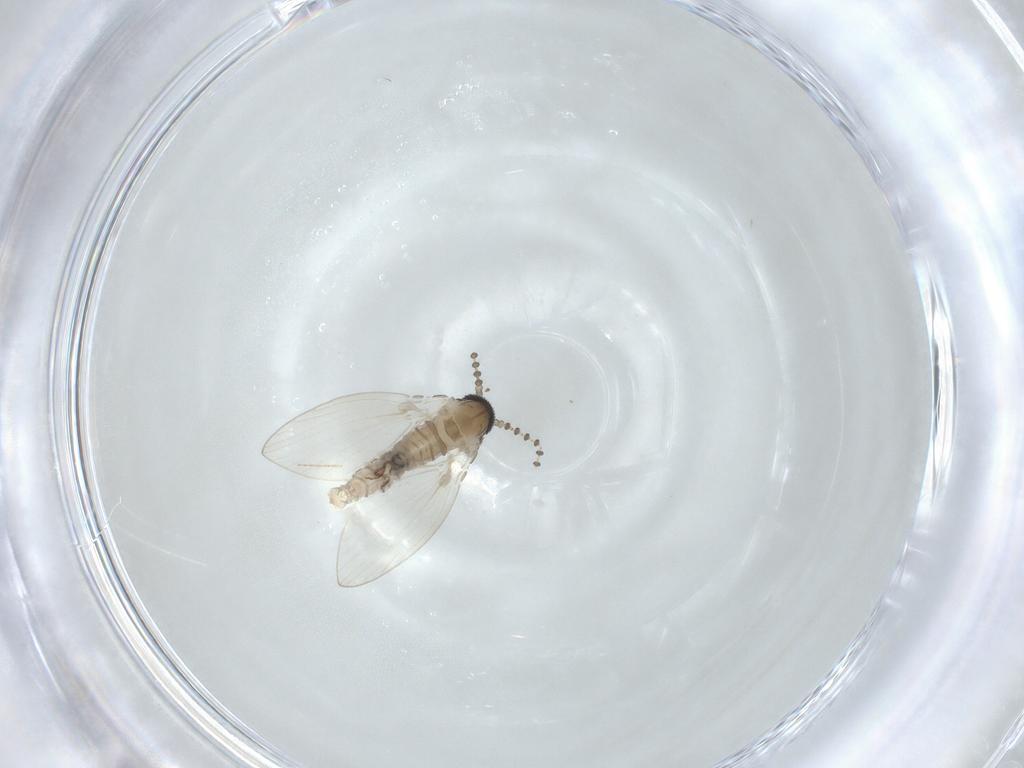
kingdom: Animalia
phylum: Arthropoda
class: Insecta
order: Diptera
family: Psychodidae
